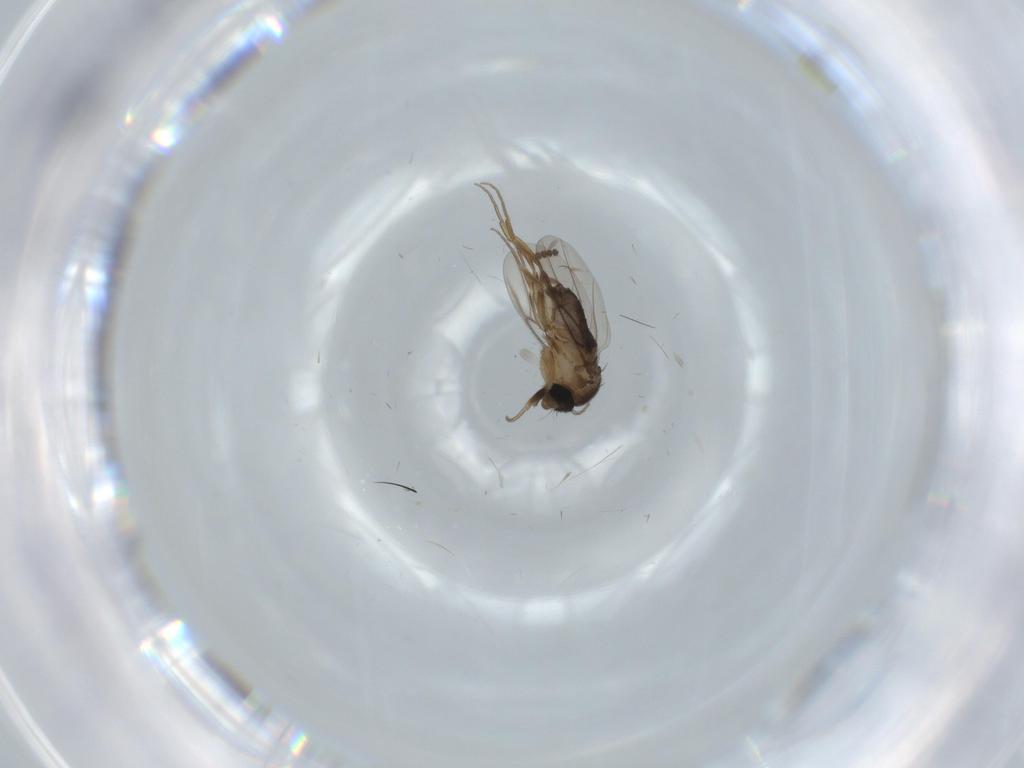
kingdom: Animalia
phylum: Arthropoda
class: Insecta
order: Diptera
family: Phoridae
